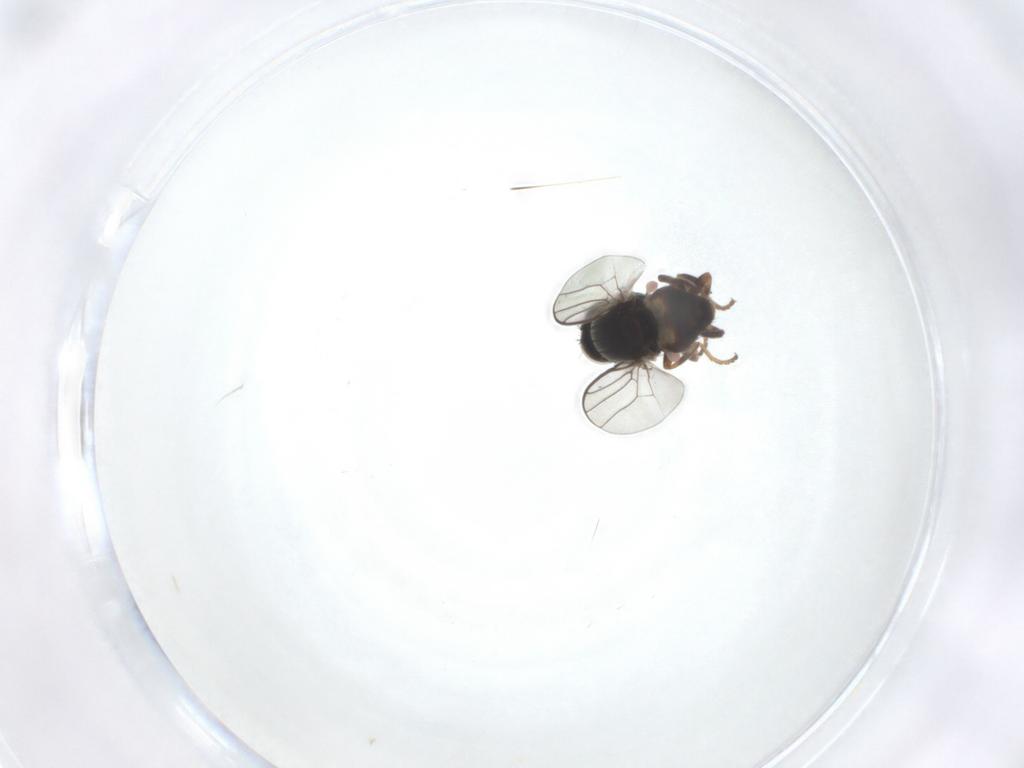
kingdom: Animalia
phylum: Arthropoda
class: Insecta
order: Diptera
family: Chloropidae
